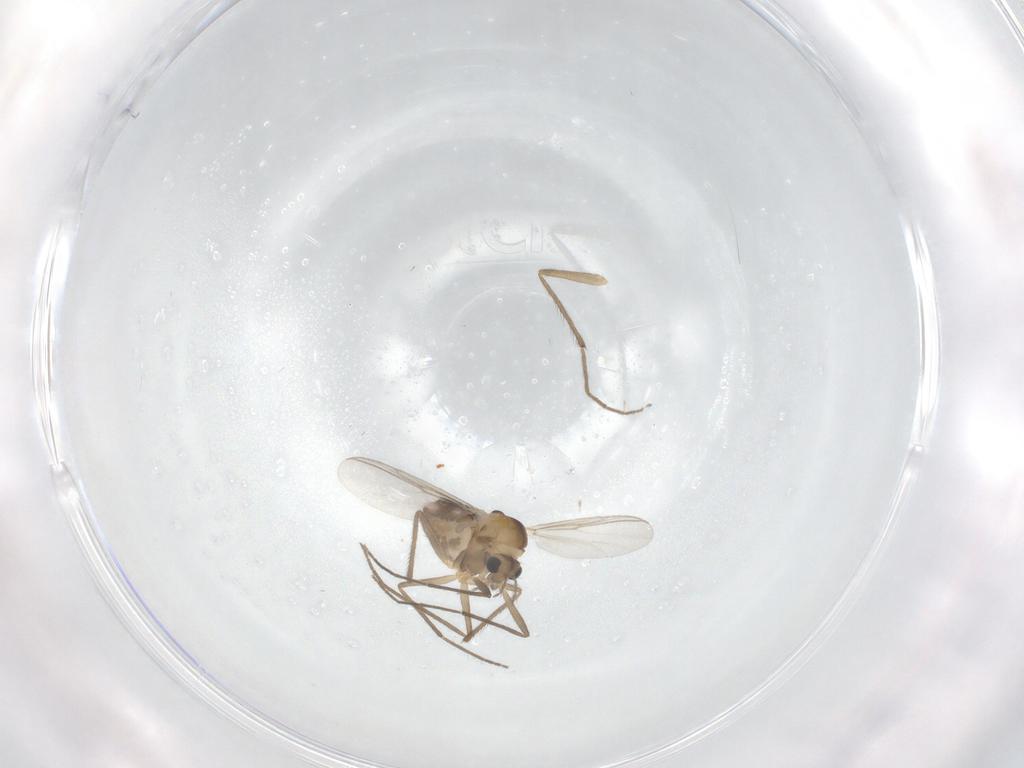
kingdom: Animalia
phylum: Arthropoda
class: Insecta
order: Diptera
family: Chironomidae
